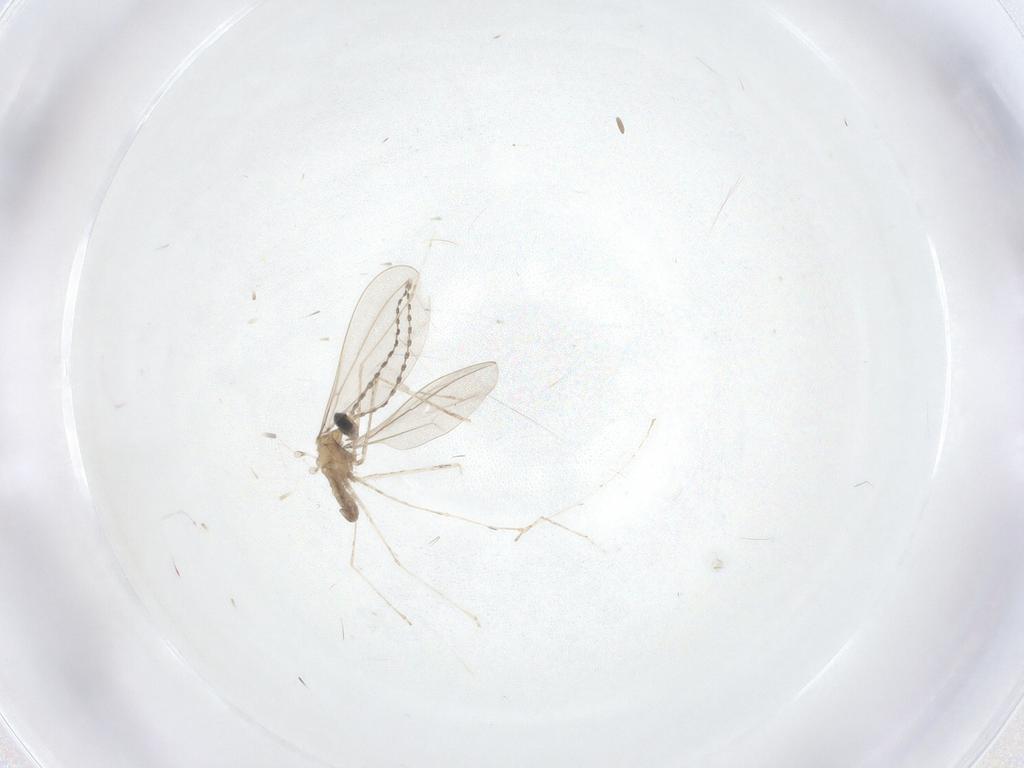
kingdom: Animalia
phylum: Arthropoda
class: Insecta
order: Diptera
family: Cecidomyiidae
